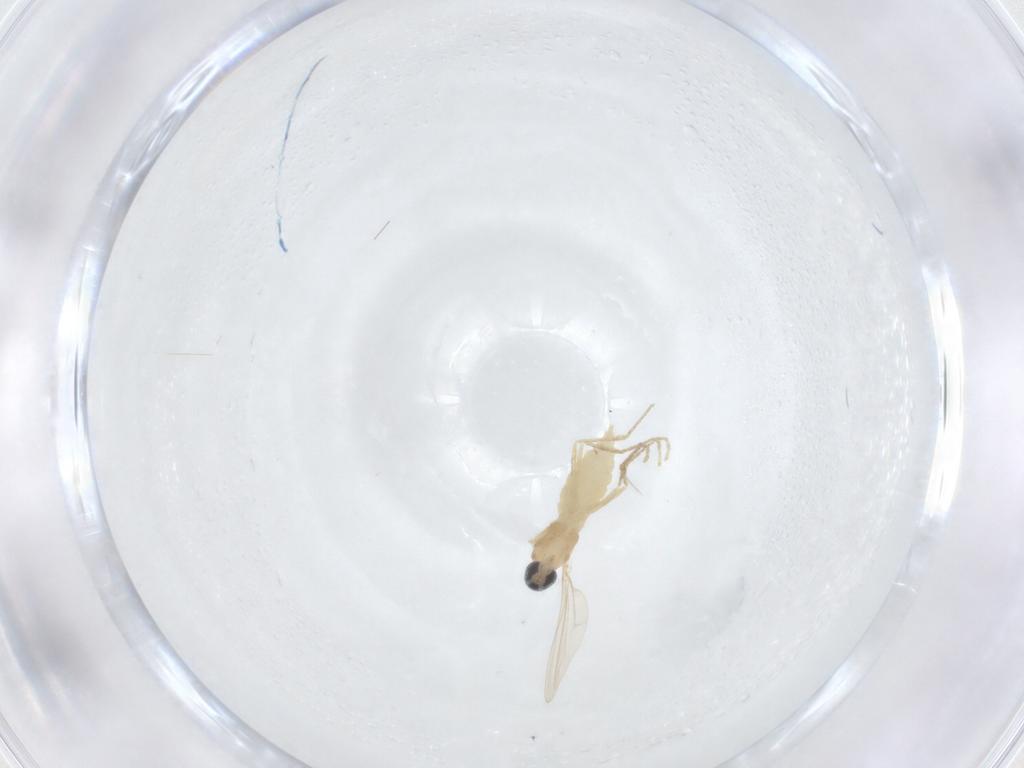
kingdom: Animalia
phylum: Arthropoda
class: Insecta
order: Diptera
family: Cecidomyiidae
